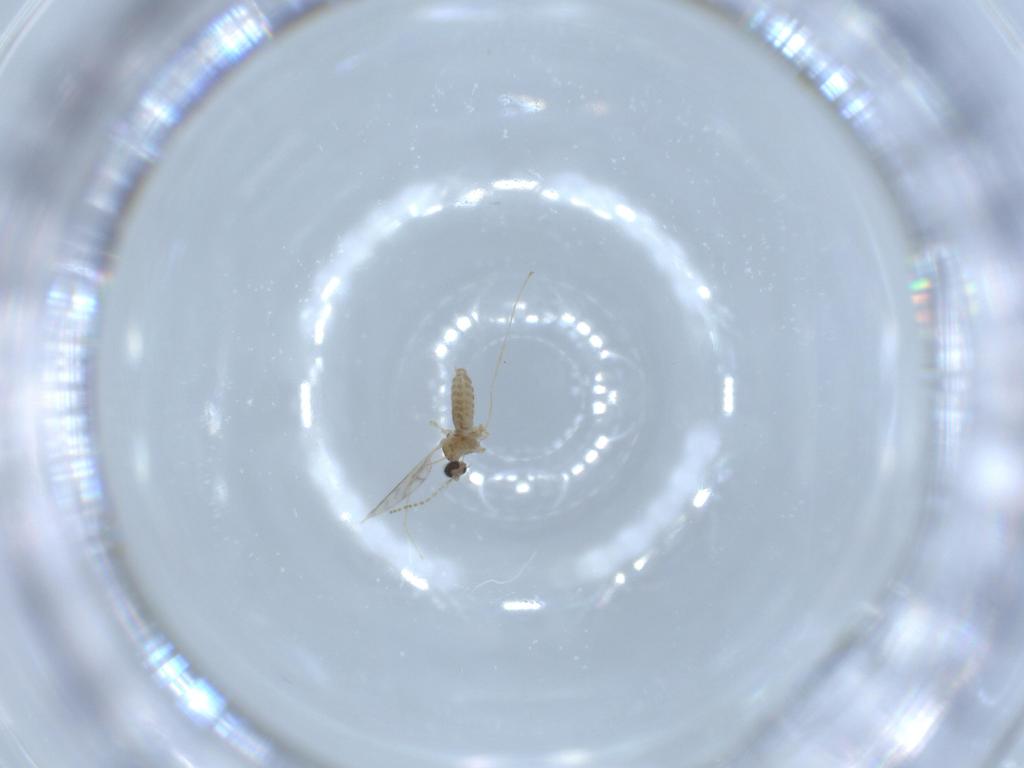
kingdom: Animalia
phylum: Arthropoda
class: Insecta
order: Diptera
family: Cecidomyiidae
